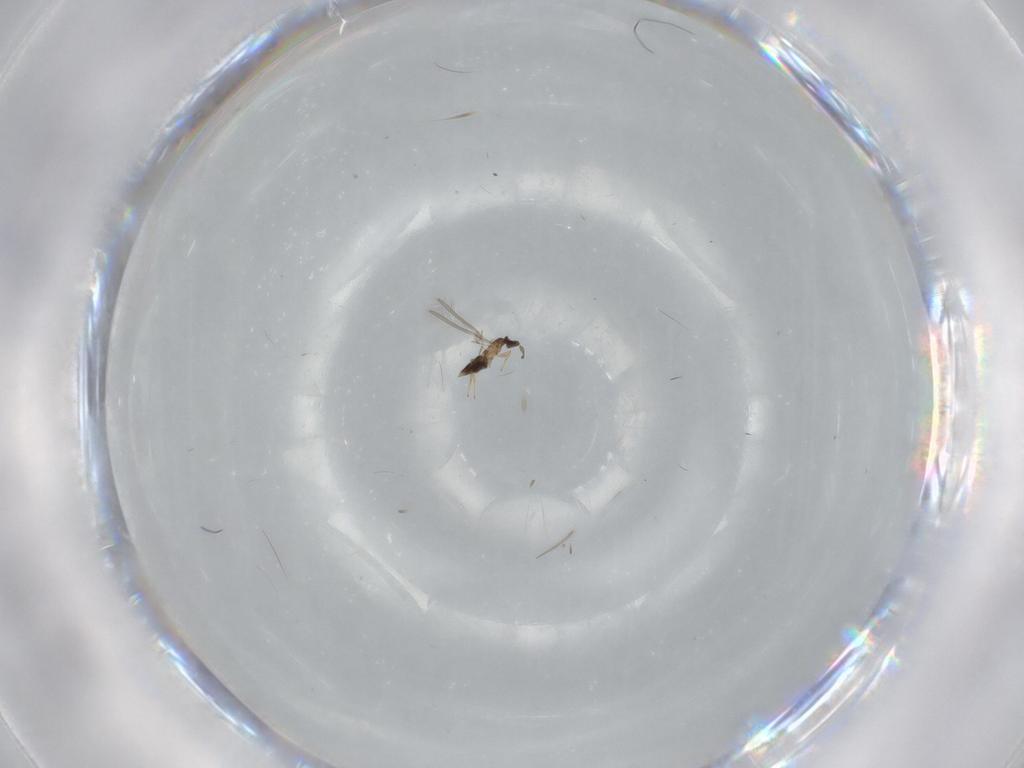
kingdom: Animalia
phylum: Arthropoda
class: Insecta
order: Hymenoptera
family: Mymaridae
